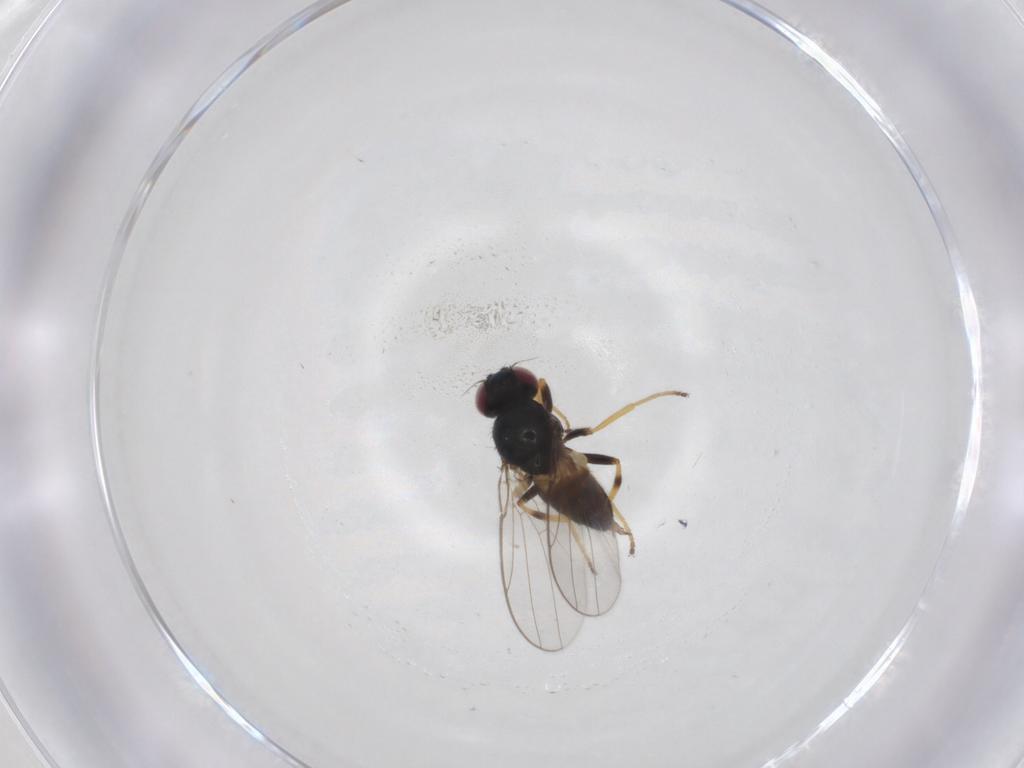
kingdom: Animalia
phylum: Arthropoda
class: Insecta
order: Diptera
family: Chloropidae
